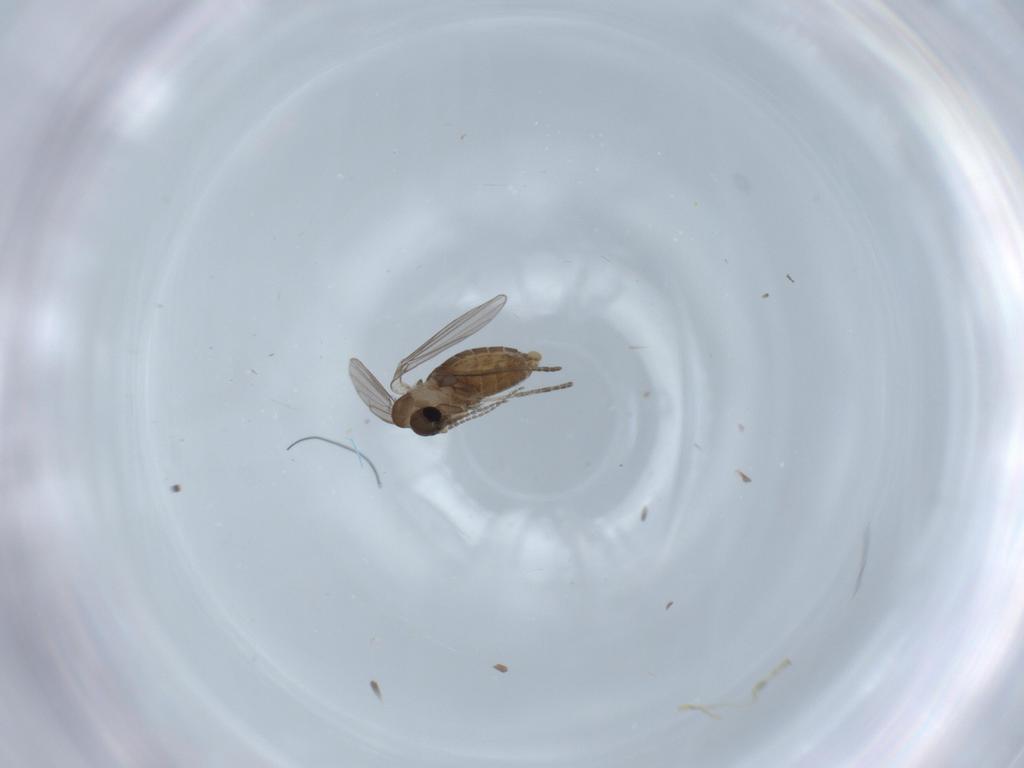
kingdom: Animalia
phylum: Arthropoda
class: Insecta
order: Diptera
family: Sciaridae
